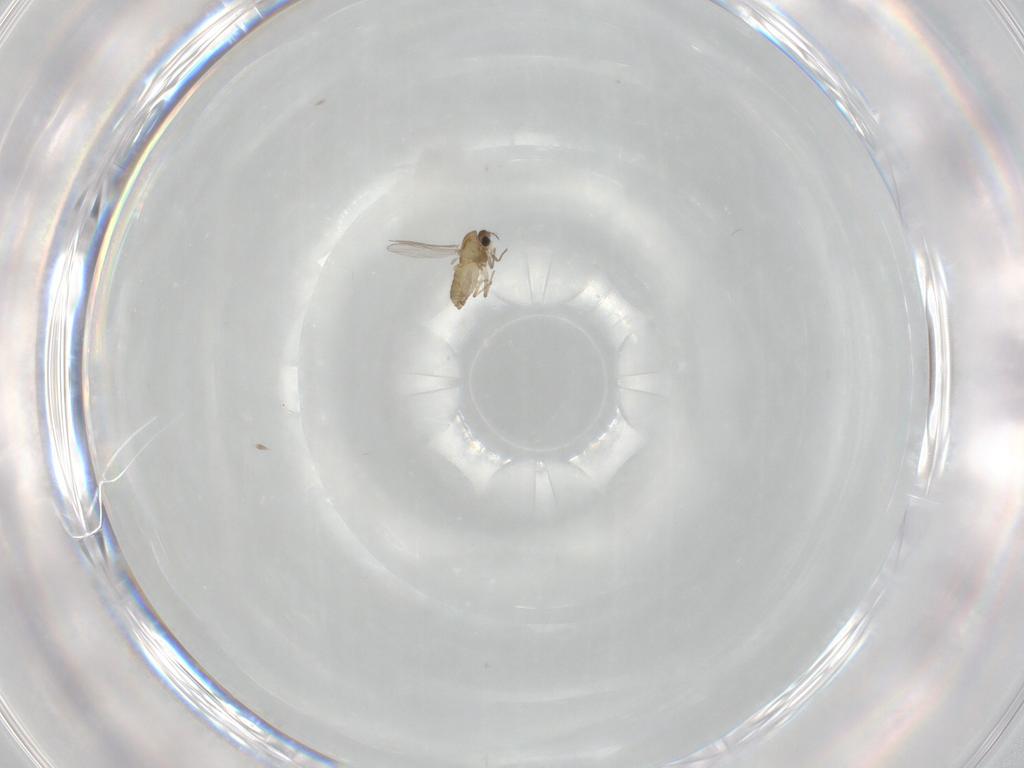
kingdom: Animalia
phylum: Arthropoda
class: Insecta
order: Diptera
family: Chironomidae
